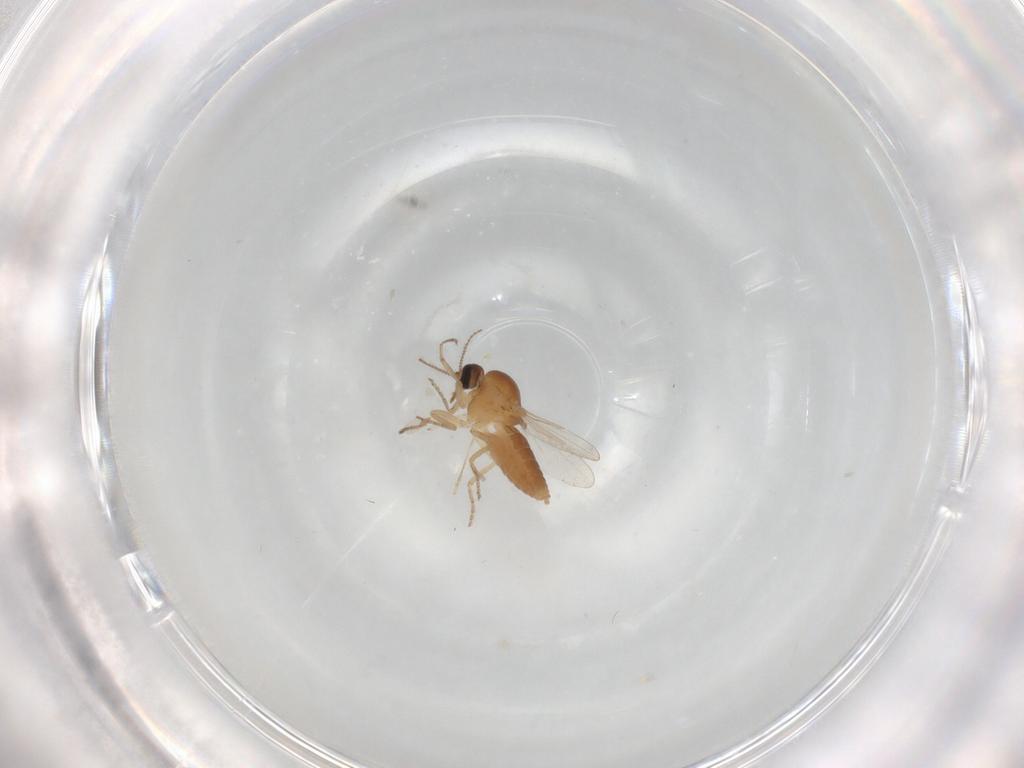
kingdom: Animalia
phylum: Arthropoda
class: Insecta
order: Diptera
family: Ceratopogonidae
